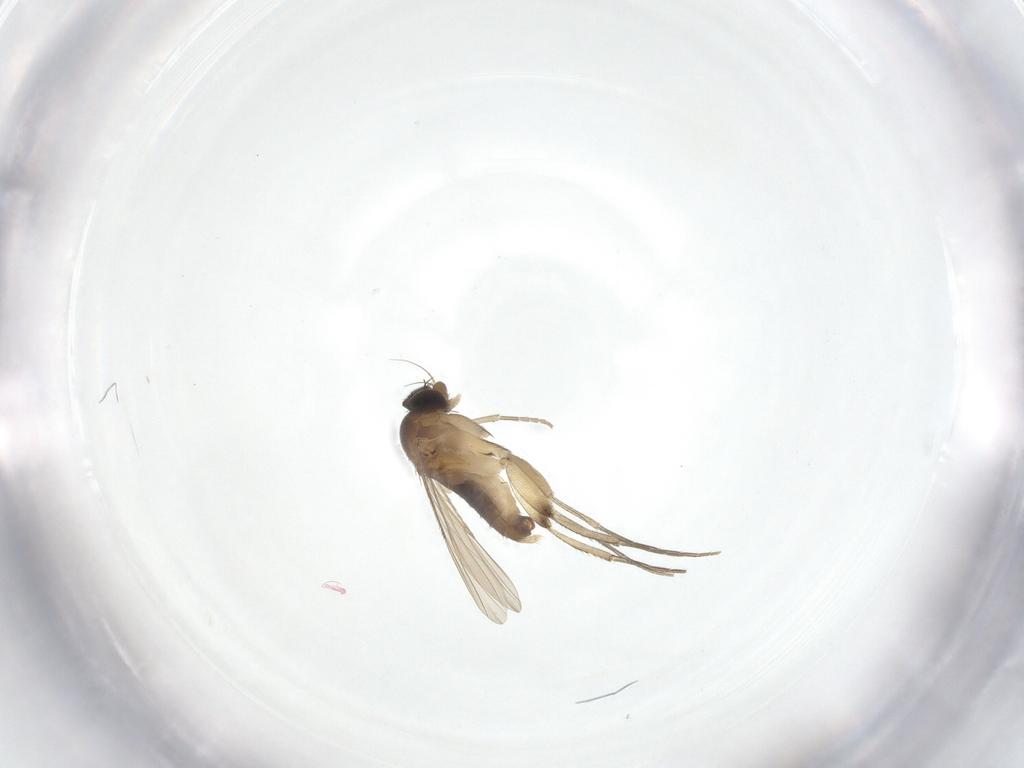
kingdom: Animalia
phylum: Arthropoda
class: Insecta
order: Diptera
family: Phoridae
